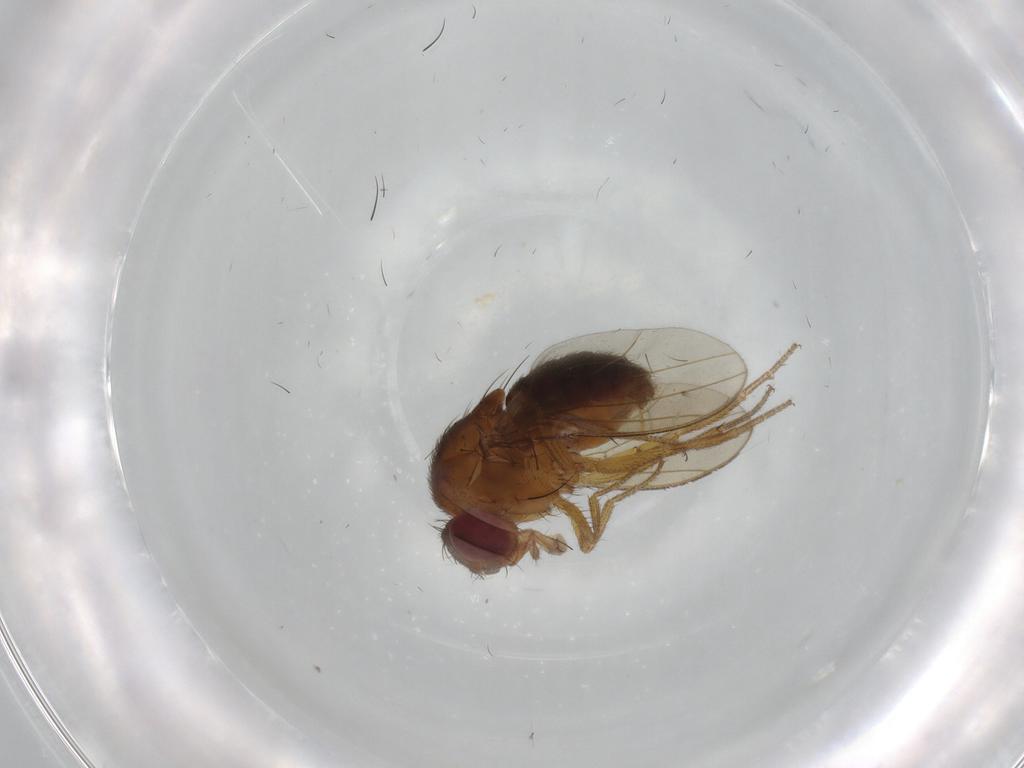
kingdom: Animalia
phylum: Arthropoda
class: Insecta
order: Diptera
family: Drosophilidae
